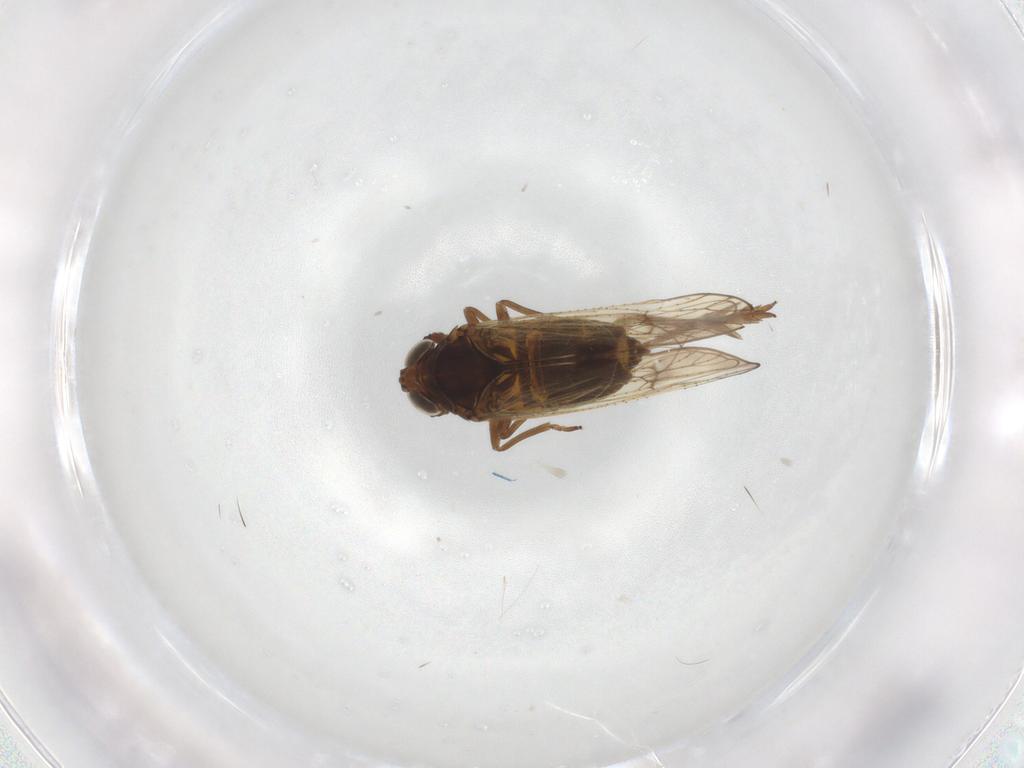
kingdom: Animalia
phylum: Arthropoda
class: Insecta
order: Hemiptera
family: Delphacidae
